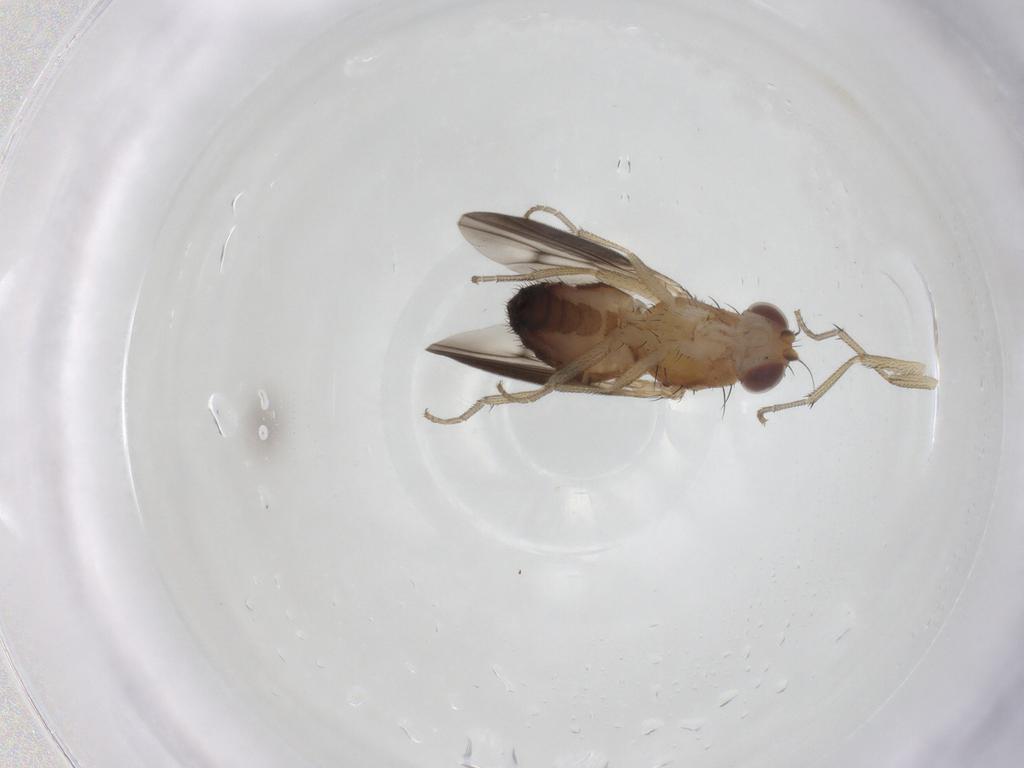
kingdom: Animalia
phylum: Arthropoda
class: Insecta
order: Diptera
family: Heleomyzidae
